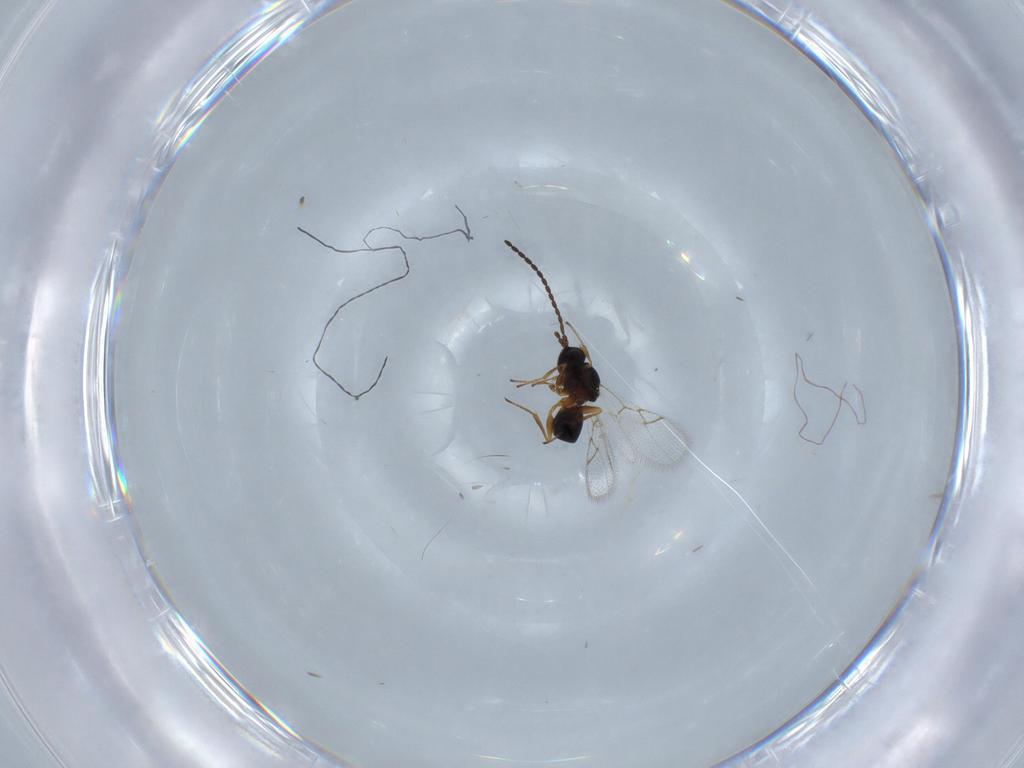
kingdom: Animalia
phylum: Arthropoda
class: Insecta
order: Hymenoptera
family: Figitidae
